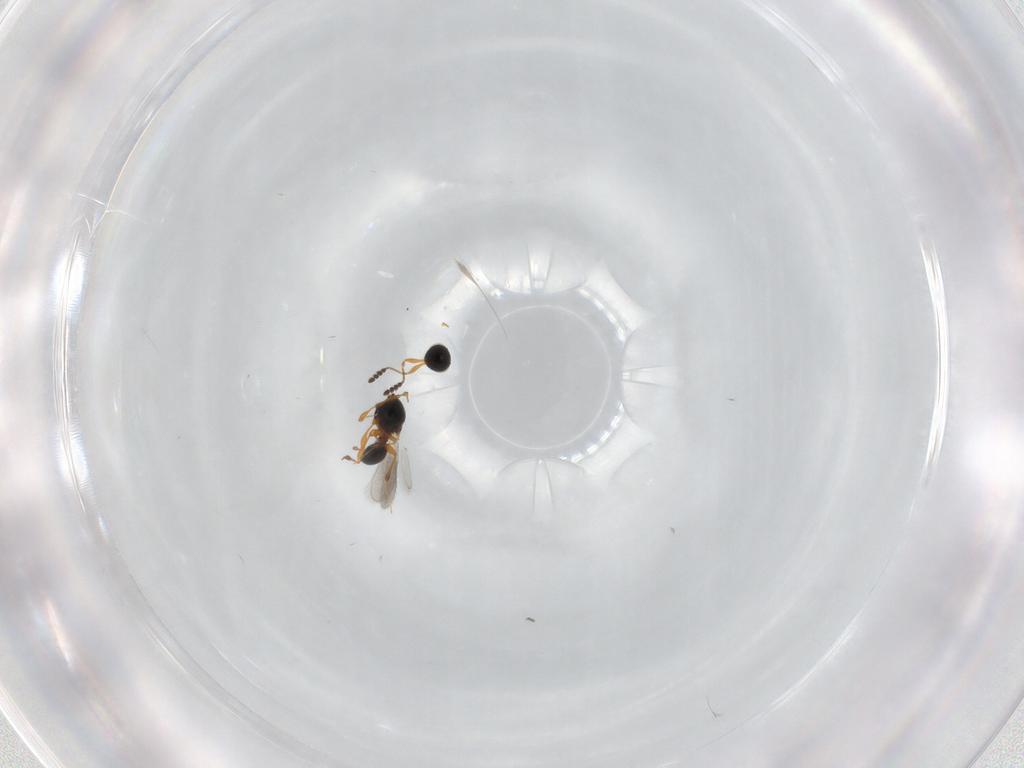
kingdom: Animalia
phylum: Arthropoda
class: Insecta
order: Hymenoptera
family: Platygastridae
